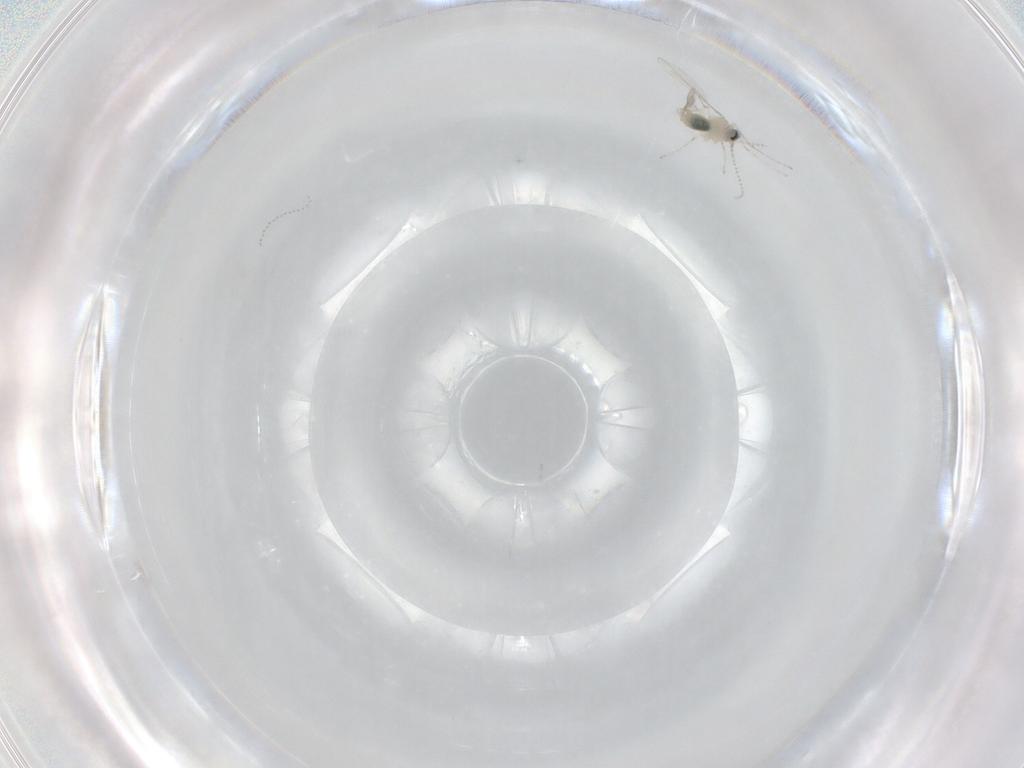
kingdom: Animalia
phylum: Arthropoda
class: Insecta
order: Diptera
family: Cecidomyiidae
